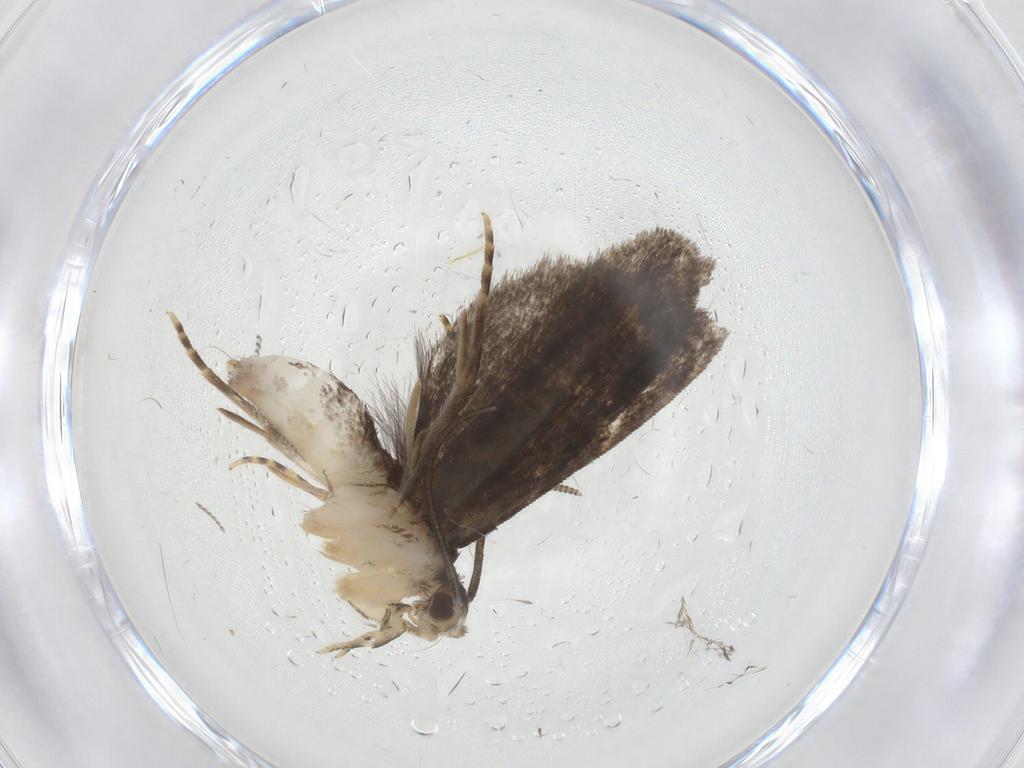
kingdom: Animalia
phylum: Arthropoda
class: Insecta
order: Lepidoptera
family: Dryadaulidae
